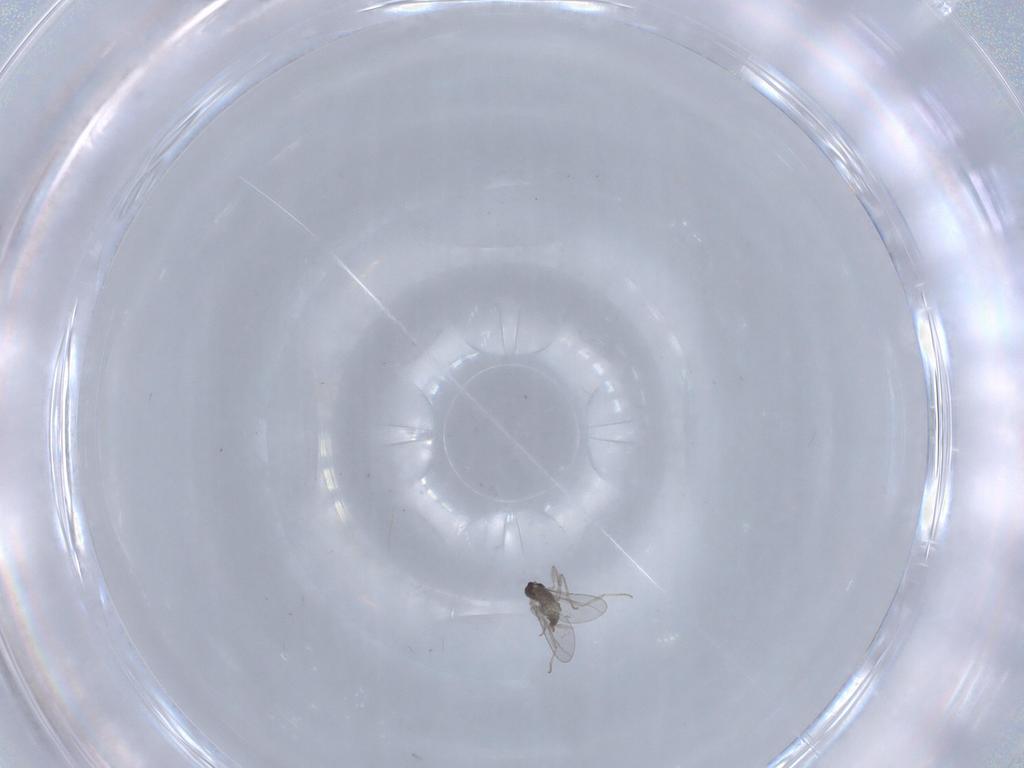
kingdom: Animalia
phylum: Arthropoda
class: Insecta
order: Diptera
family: Cecidomyiidae
